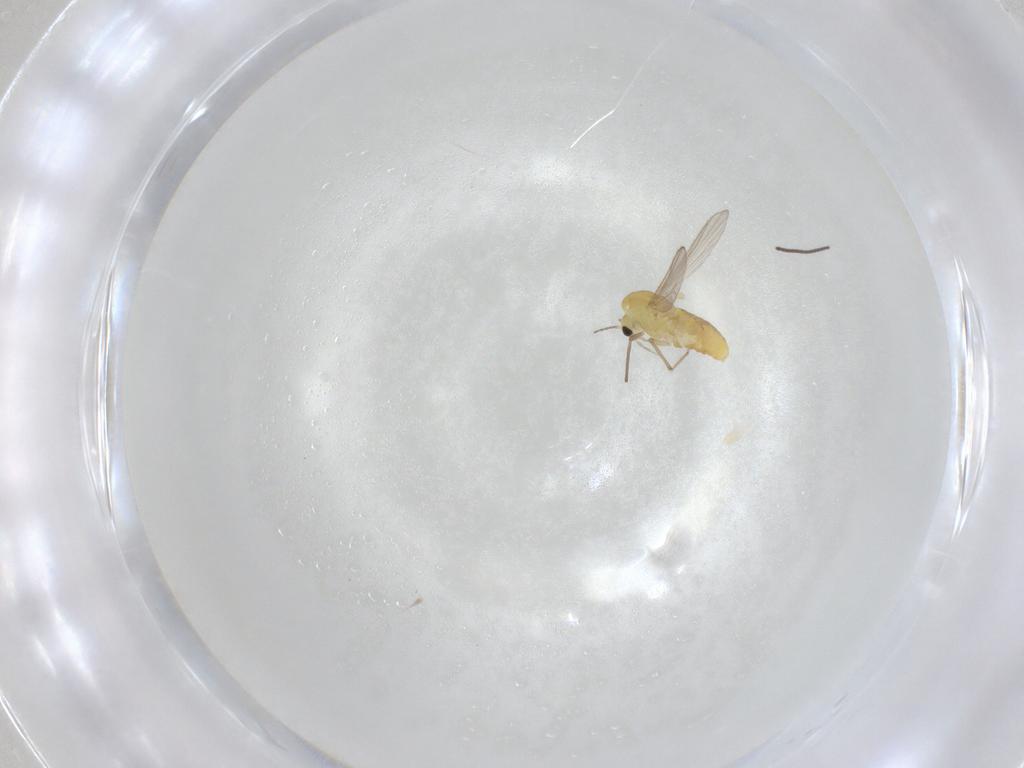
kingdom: Animalia
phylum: Arthropoda
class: Insecta
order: Diptera
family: Chironomidae
